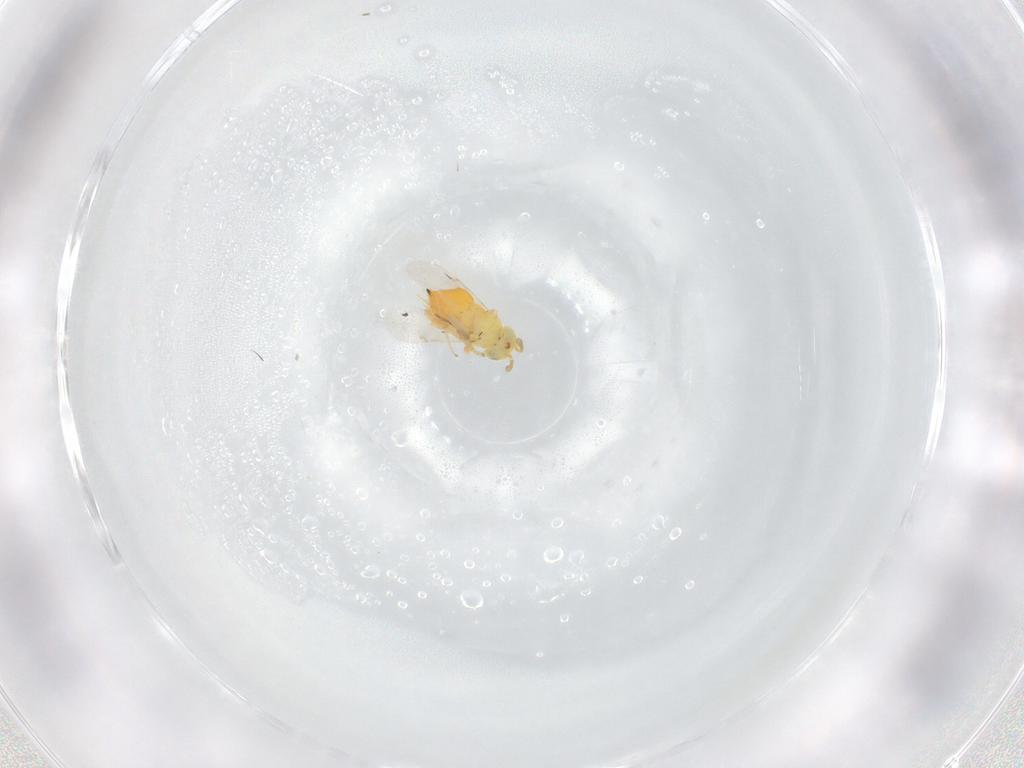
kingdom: Animalia
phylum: Arthropoda
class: Insecta
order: Hymenoptera
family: Encyrtidae
